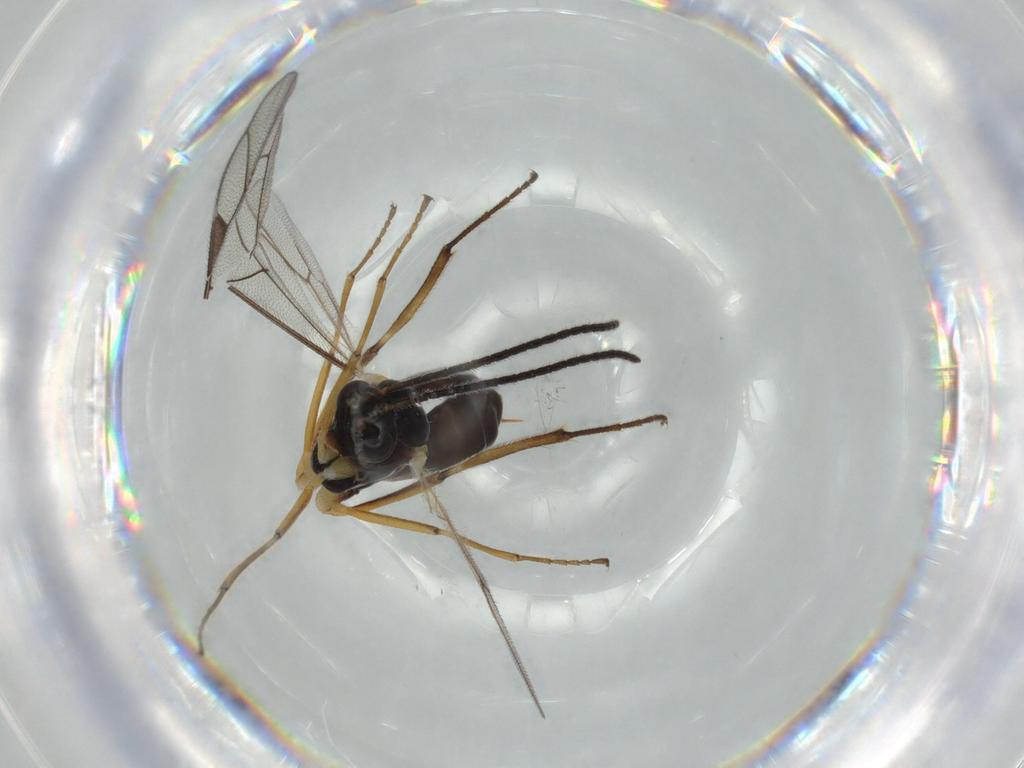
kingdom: Animalia
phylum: Arthropoda
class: Insecta
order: Hymenoptera
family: Ichneumonidae
